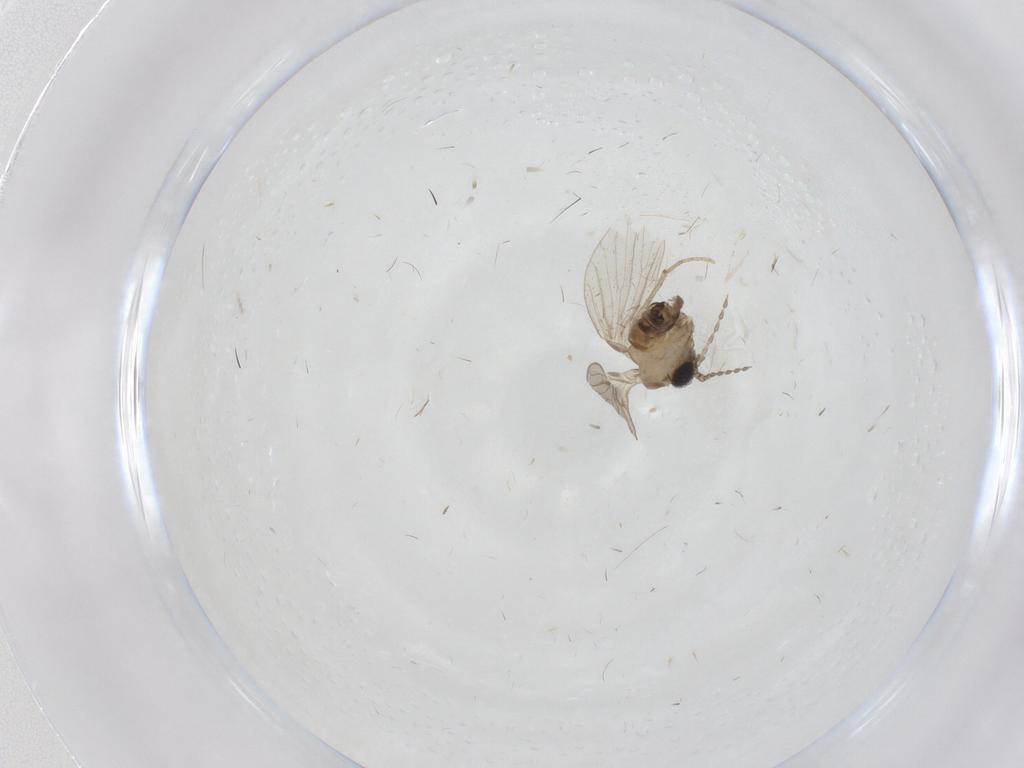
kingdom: Animalia
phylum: Arthropoda
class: Insecta
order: Diptera
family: Psychodidae
